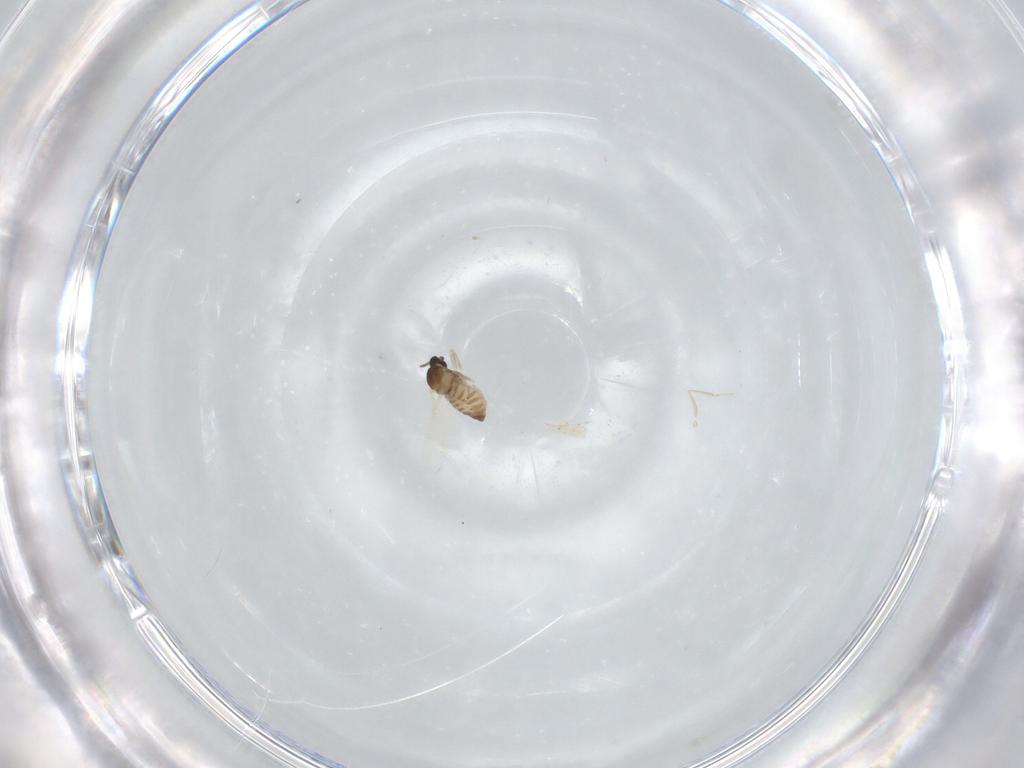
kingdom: Animalia
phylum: Arthropoda
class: Insecta
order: Diptera
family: Cecidomyiidae
